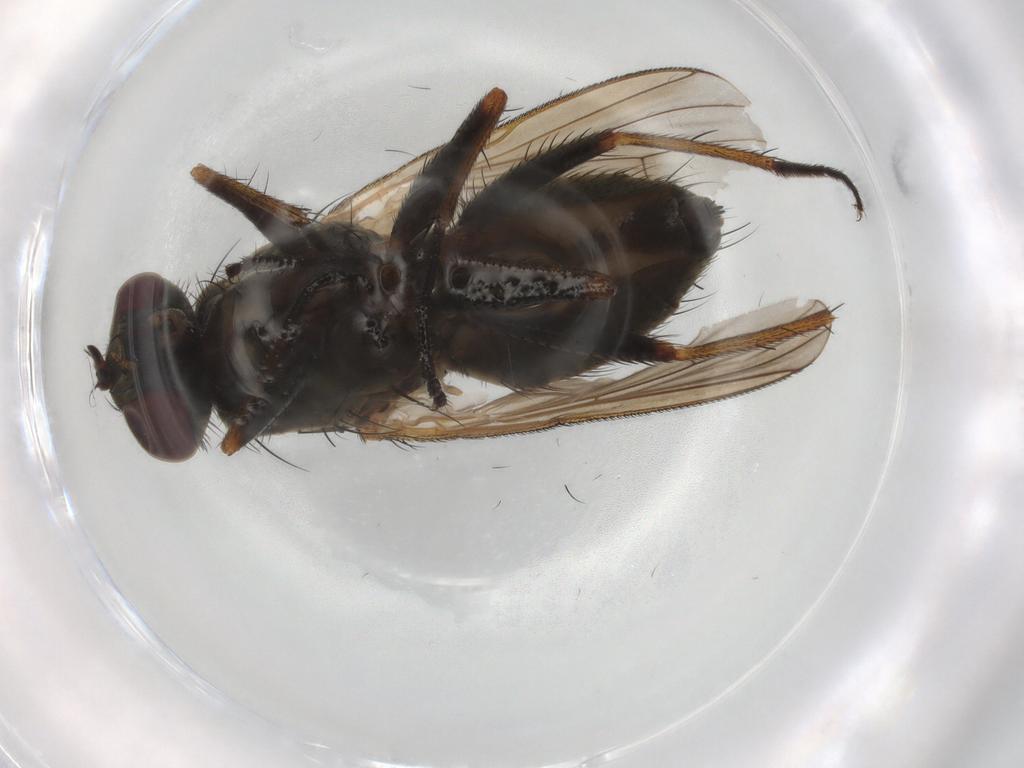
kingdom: Animalia
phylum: Arthropoda
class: Insecta
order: Diptera
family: Muscidae
